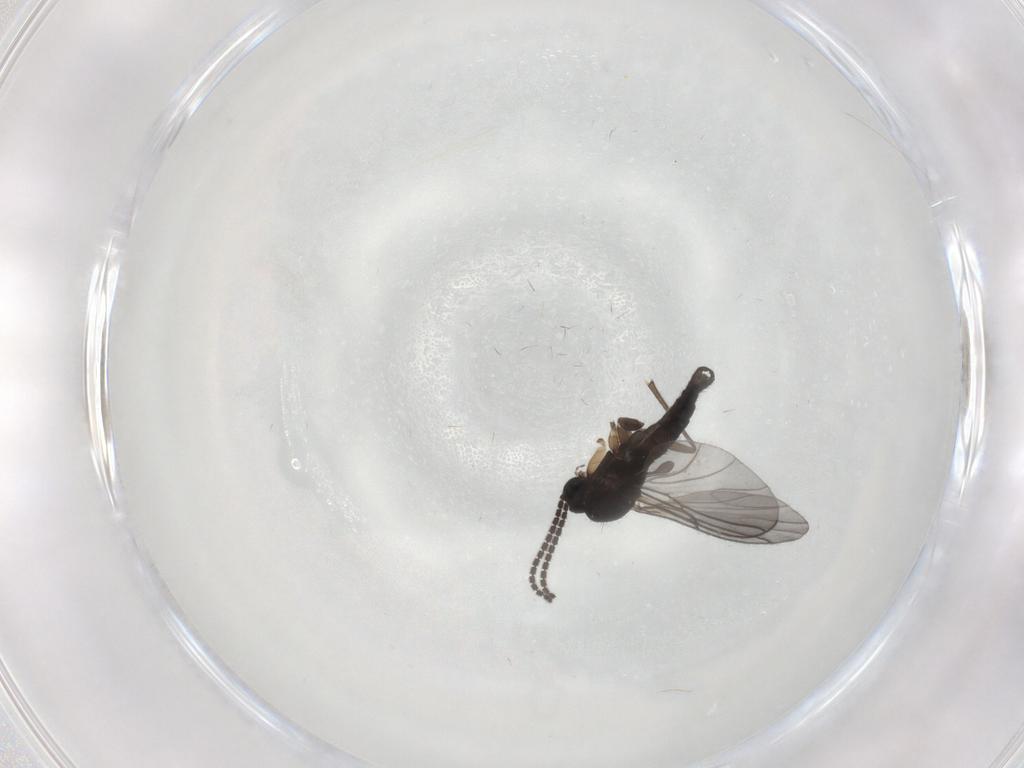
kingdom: Animalia
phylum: Arthropoda
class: Insecta
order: Diptera
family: Sciaridae
